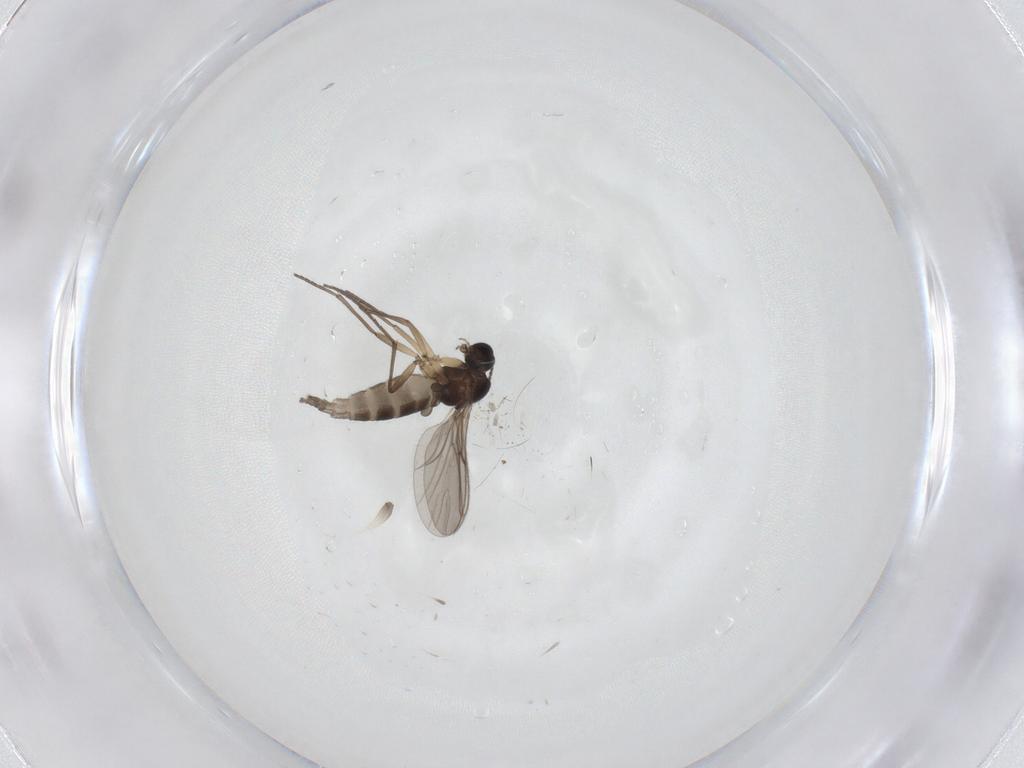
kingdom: Animalia
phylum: Arthropoda
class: Insecta
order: Diptera
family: Sciaridae
